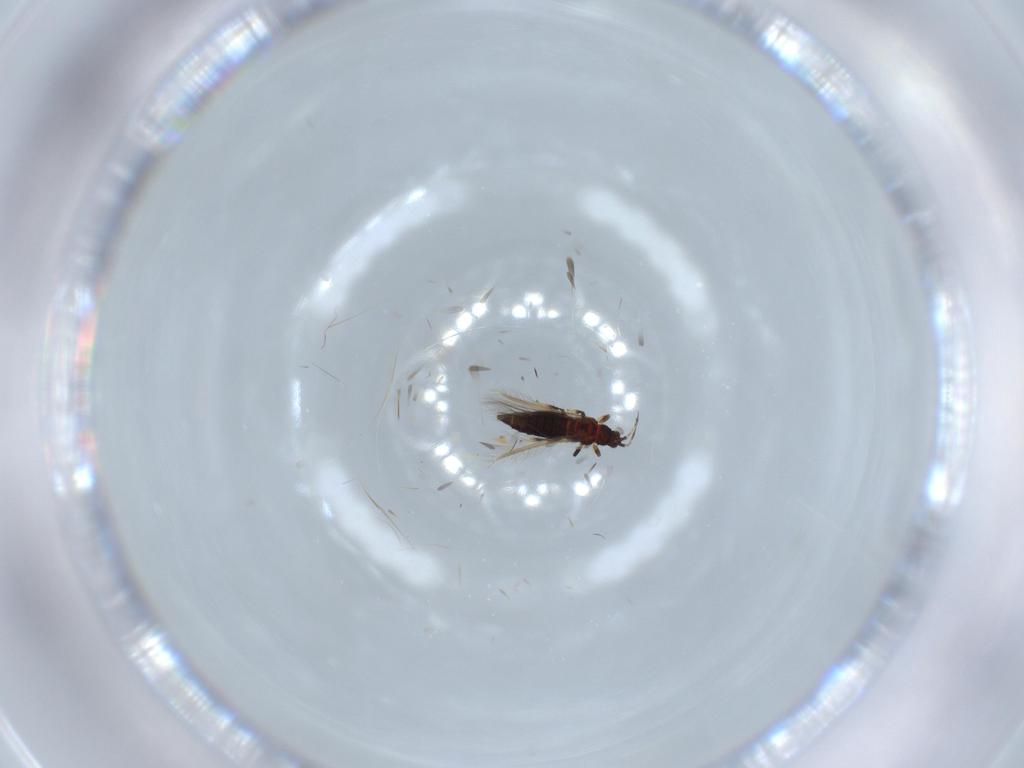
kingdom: Animalia
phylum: Arthropoda
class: Insecta
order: Thysanoptera
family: Thripidae
